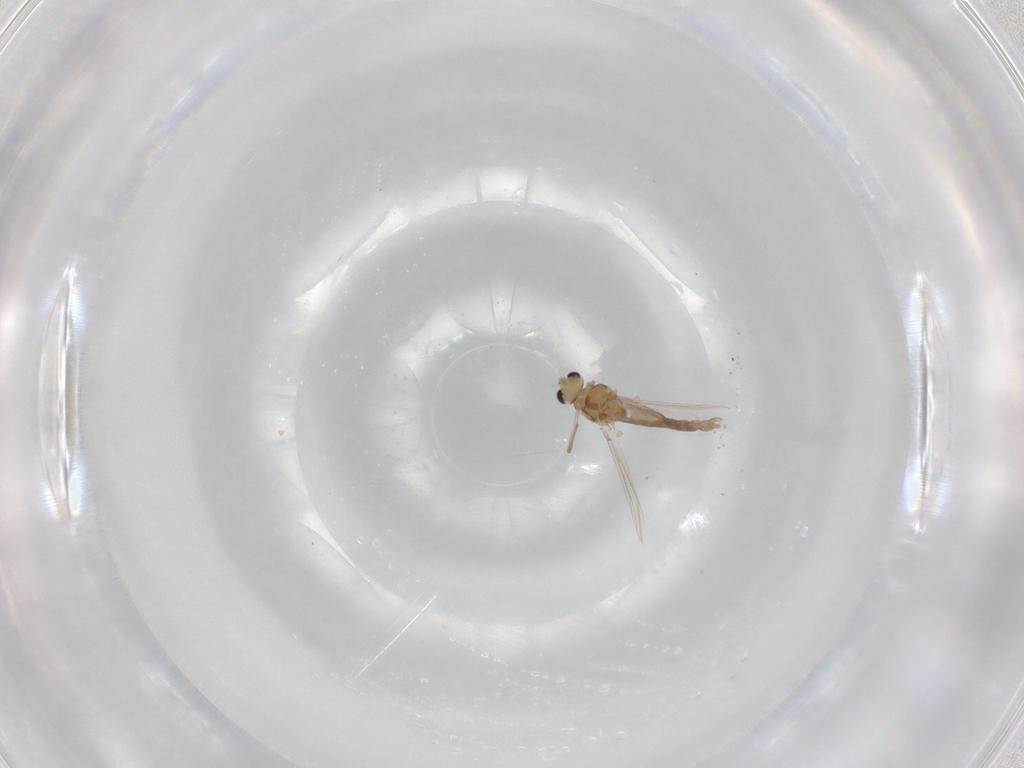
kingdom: Animalia
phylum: Arthropoda
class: Insecta
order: Diptera
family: Chironomidae
